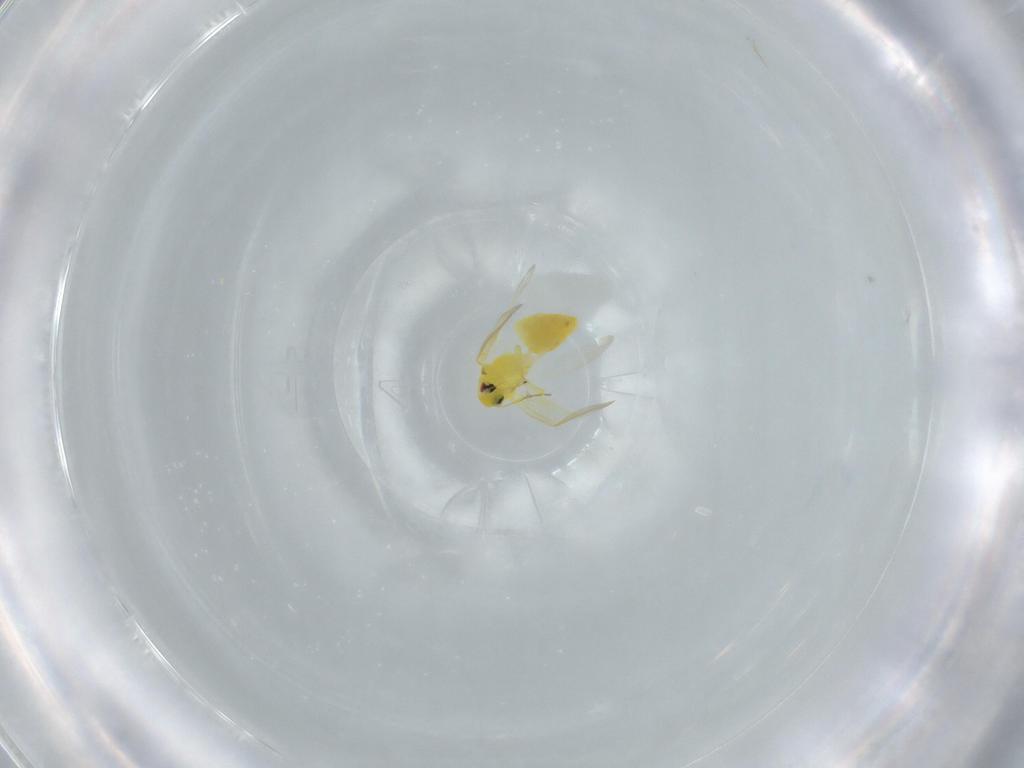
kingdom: Animalia
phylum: Arthropoda
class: Insecta
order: Hemiptera
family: Aleyrodidae
